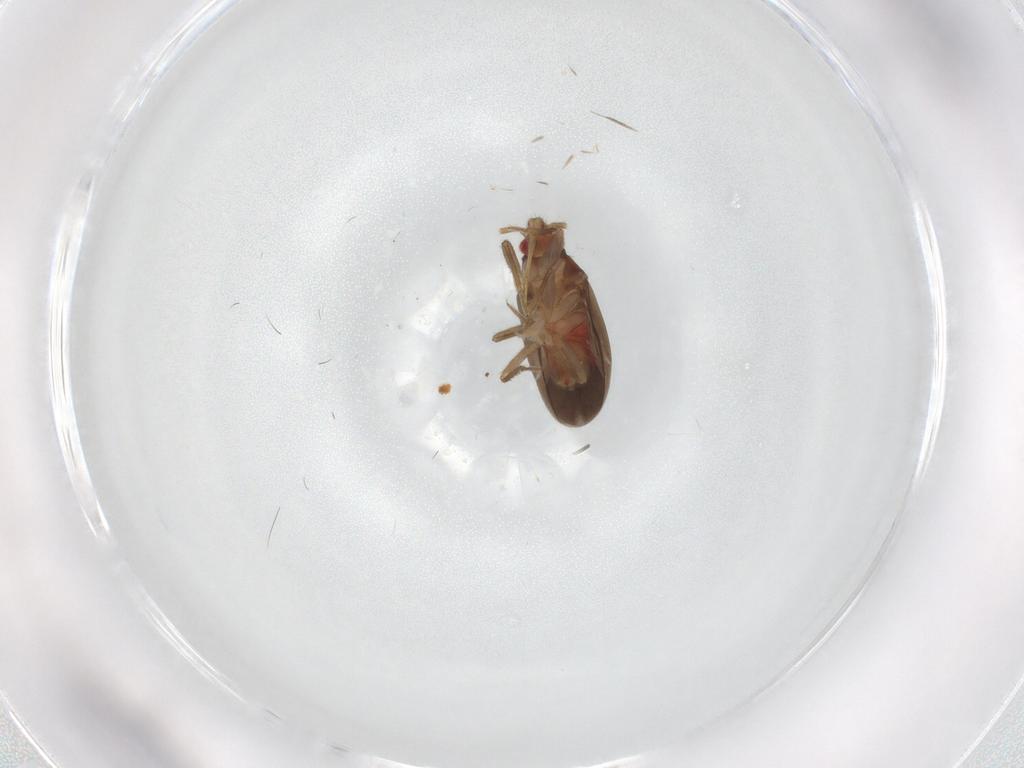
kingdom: Animalia
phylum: Arthropoda
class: Insecta
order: Hemiptera
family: Ceratocombidae
